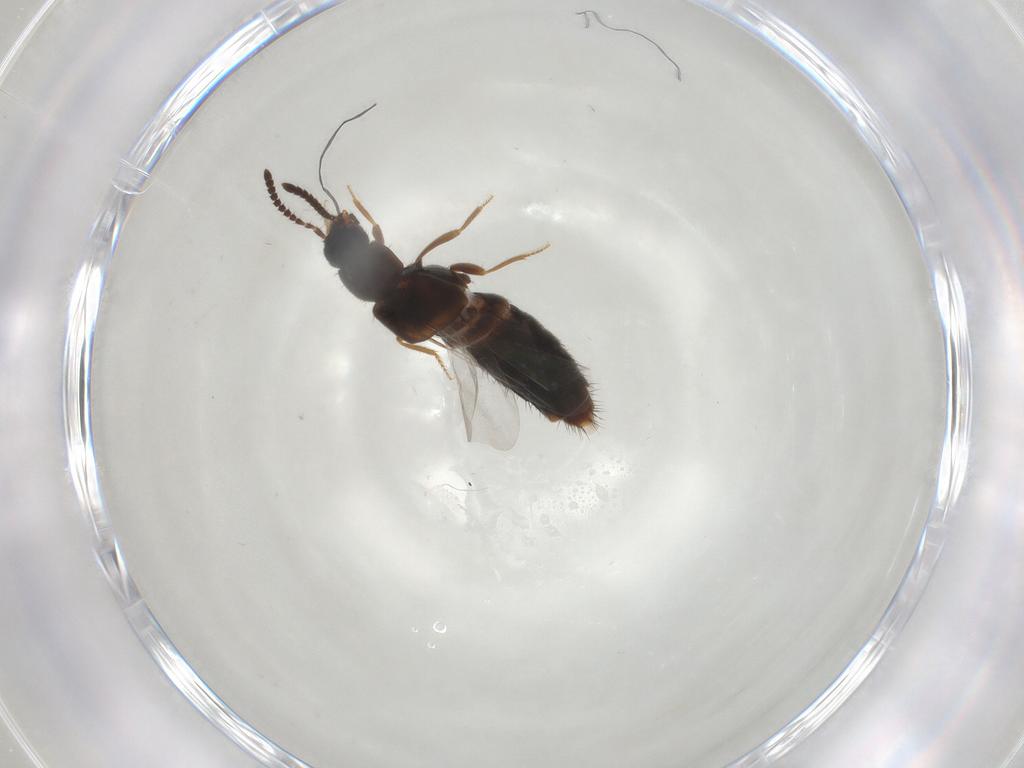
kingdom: Animalia
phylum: Arthropoda
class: Insecta
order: Coleoptera
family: Staphylinidae
